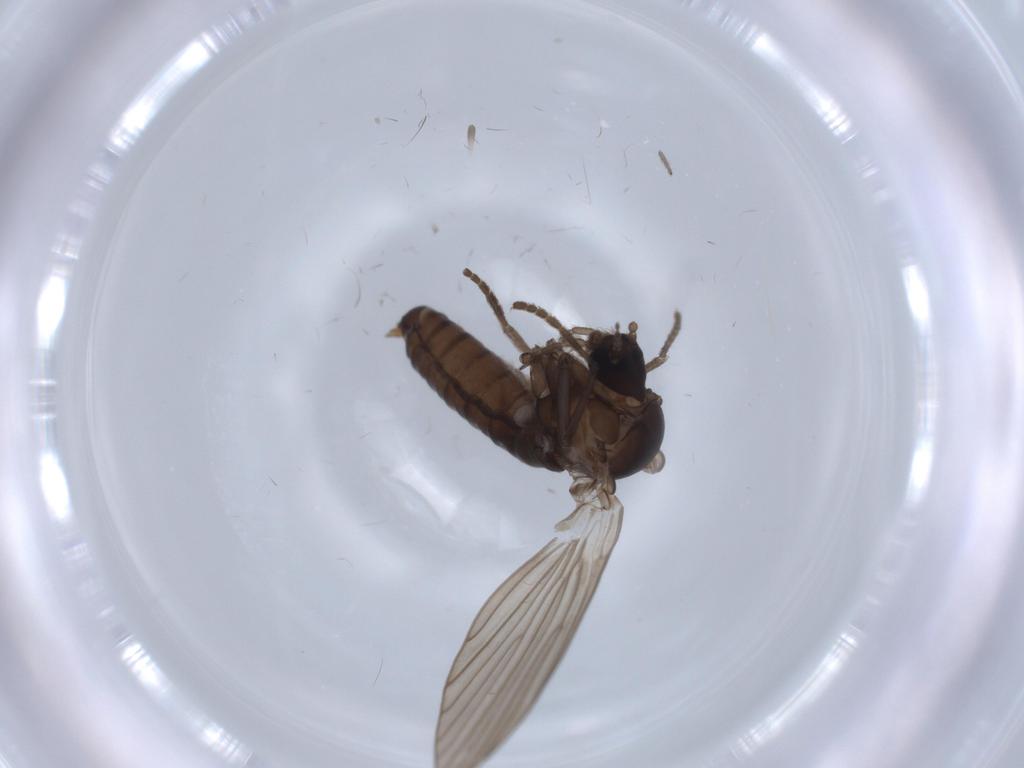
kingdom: Animalia
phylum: Arthropoda
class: Insecta
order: Diptera
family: Psychodidae
